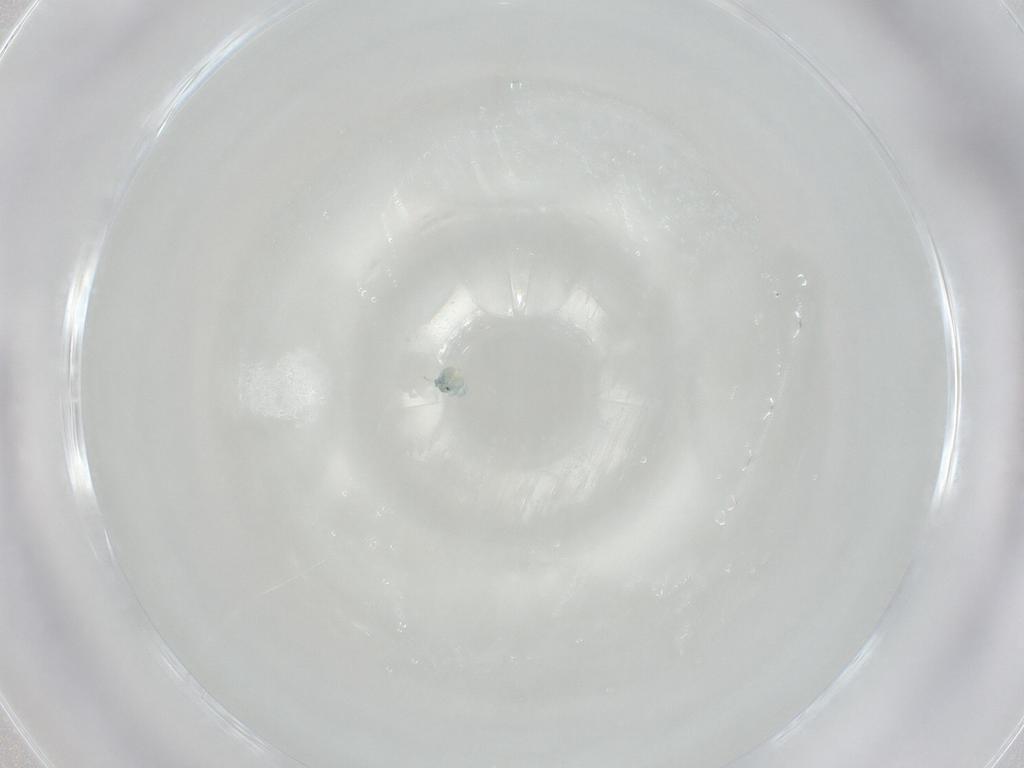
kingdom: Animalia
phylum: Arthropoda
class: Arachnida
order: Trombidiformes
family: Arrenuridae
